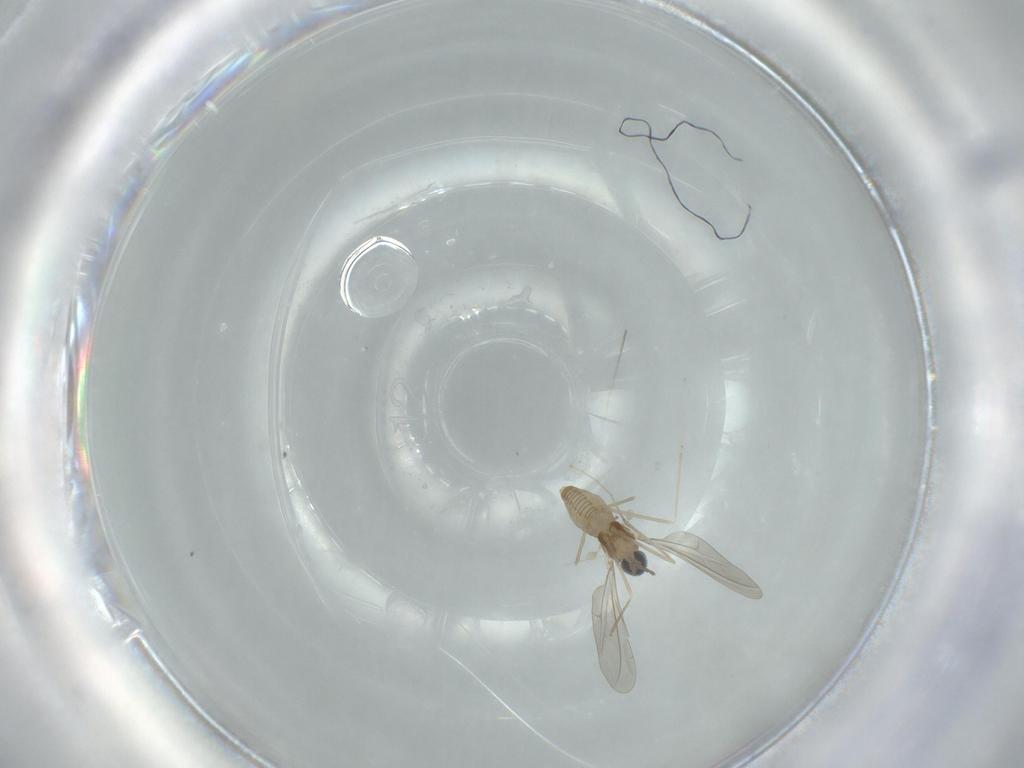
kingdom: Animalia
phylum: Arthropoda
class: Insecta
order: Diptera
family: Cecidomyiidae
